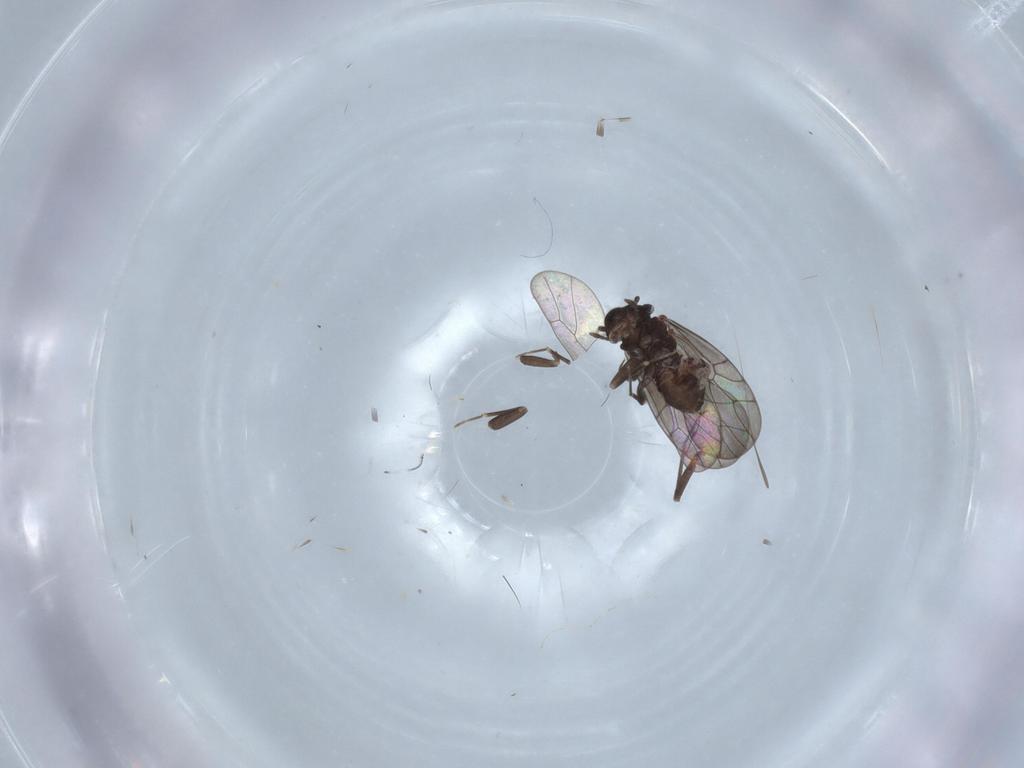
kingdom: Animalia
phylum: Arthropoda
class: Insecta
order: Psocodea
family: Lepidopsocidae
